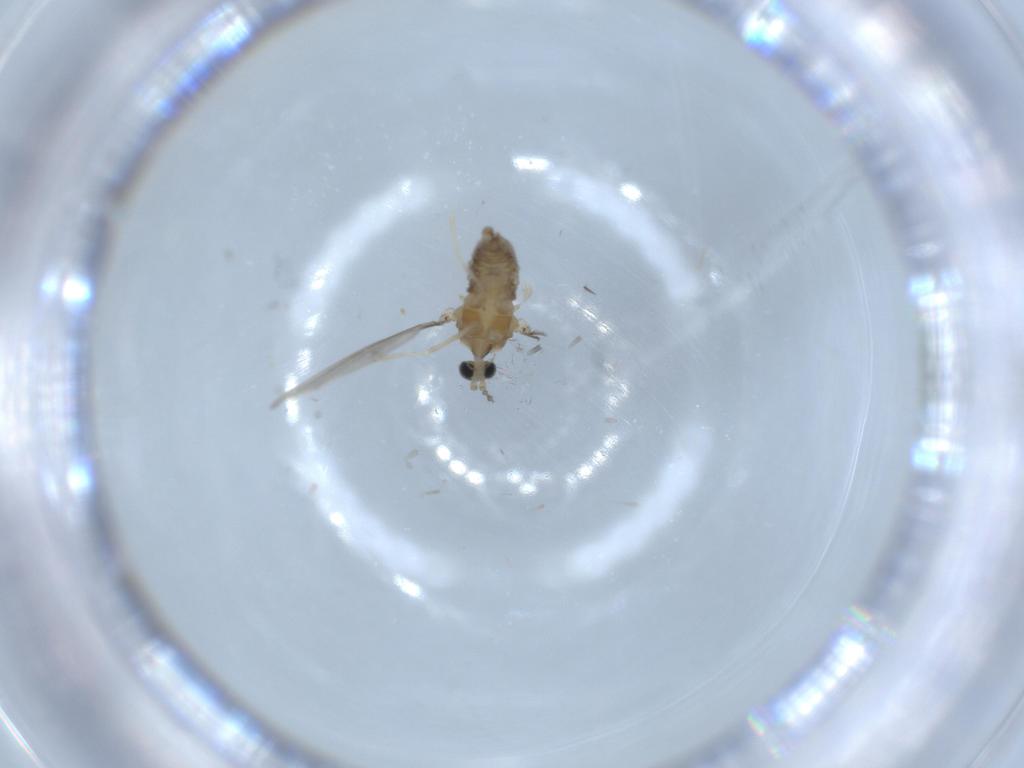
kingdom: Animalia
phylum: Arthropoda
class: Insecta
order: Diptera
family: Cecidomyiidae
